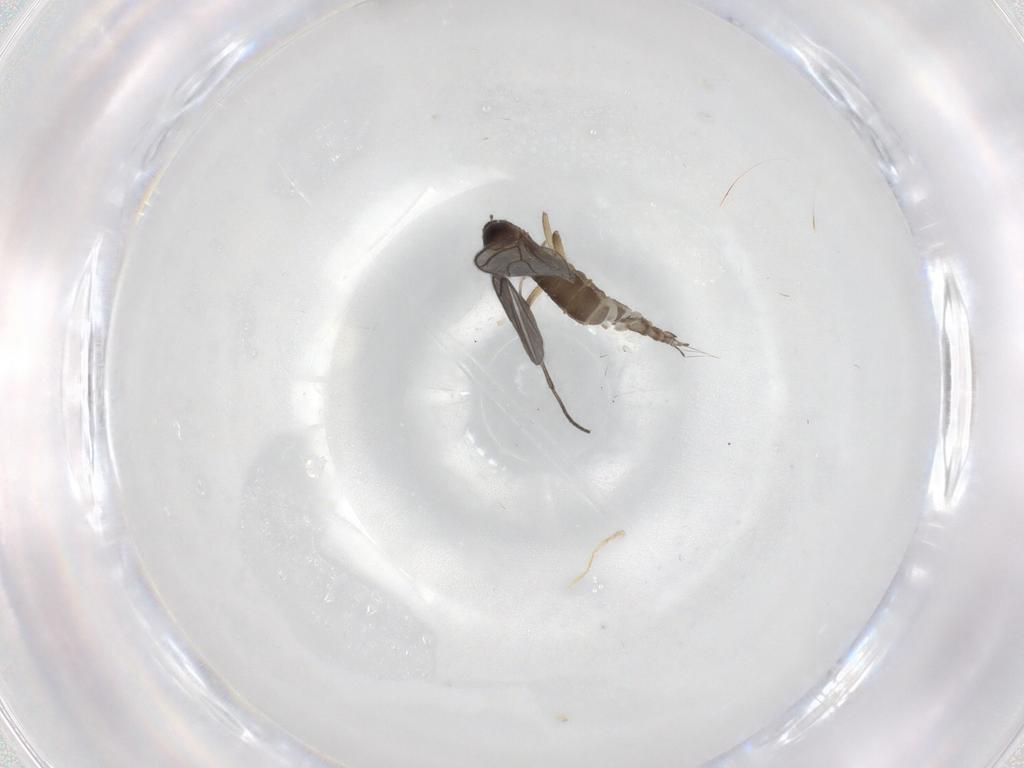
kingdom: Animalia
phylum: Arthropoda
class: Insecta
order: Diptera
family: Sciaridae
